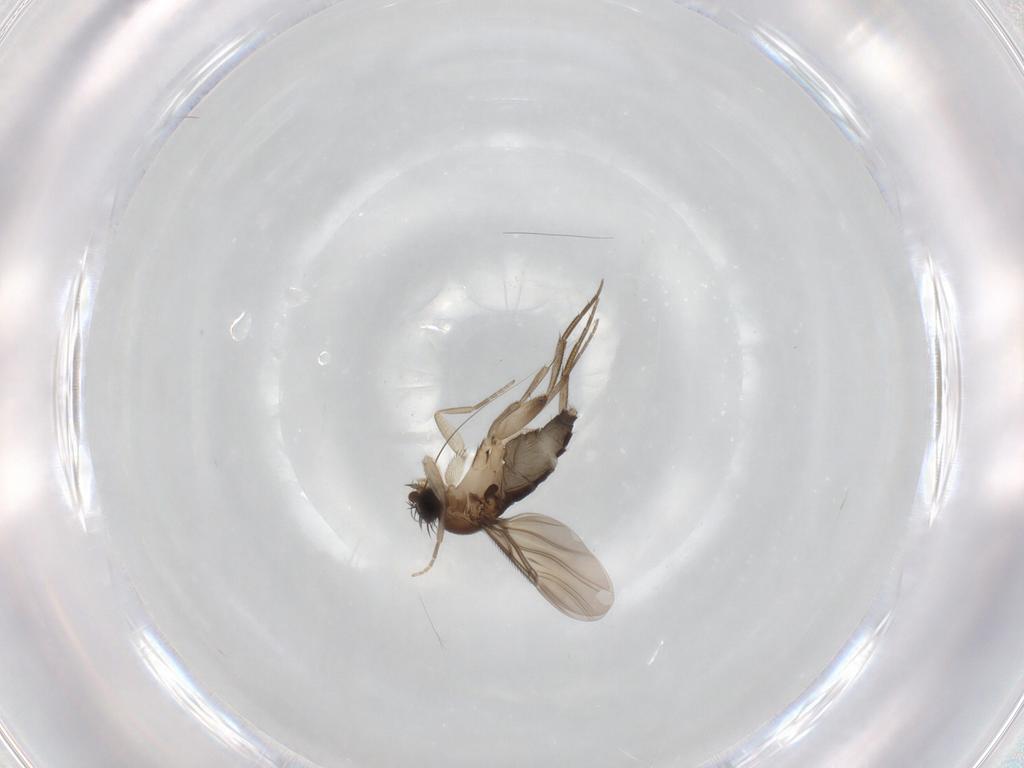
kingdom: Animalia
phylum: Arthropoda
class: Insecta
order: Diptera
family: Phoridae
